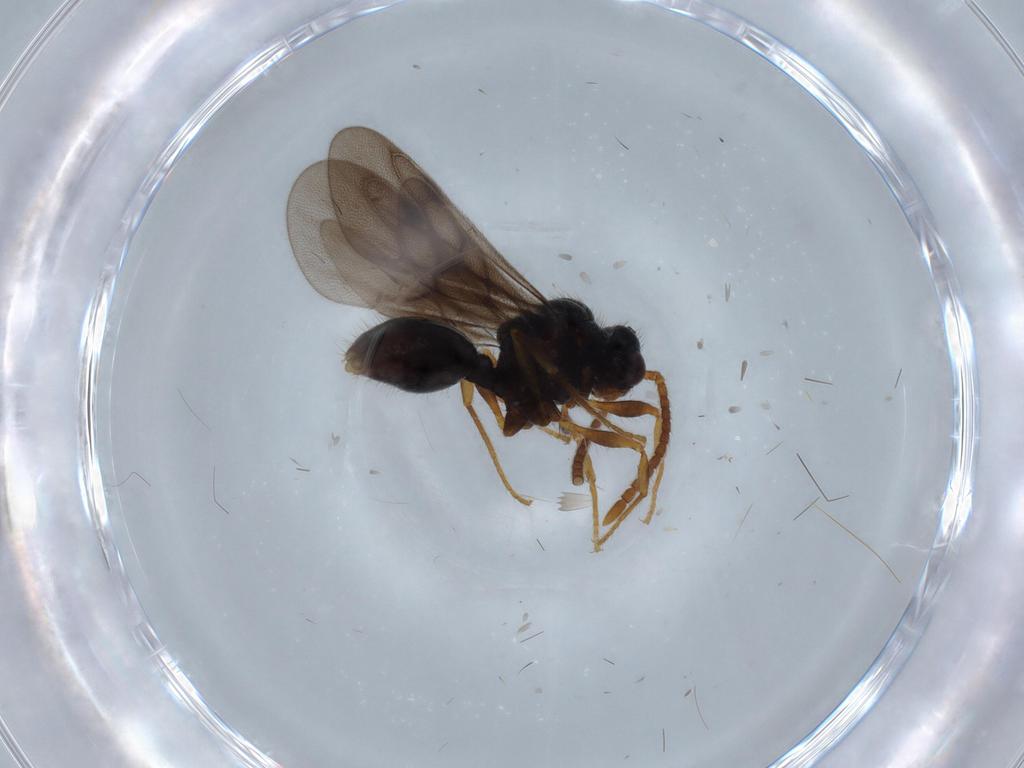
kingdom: Animalia
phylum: Arthropoda
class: Insecta
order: Hymenoptera
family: Formicidae
